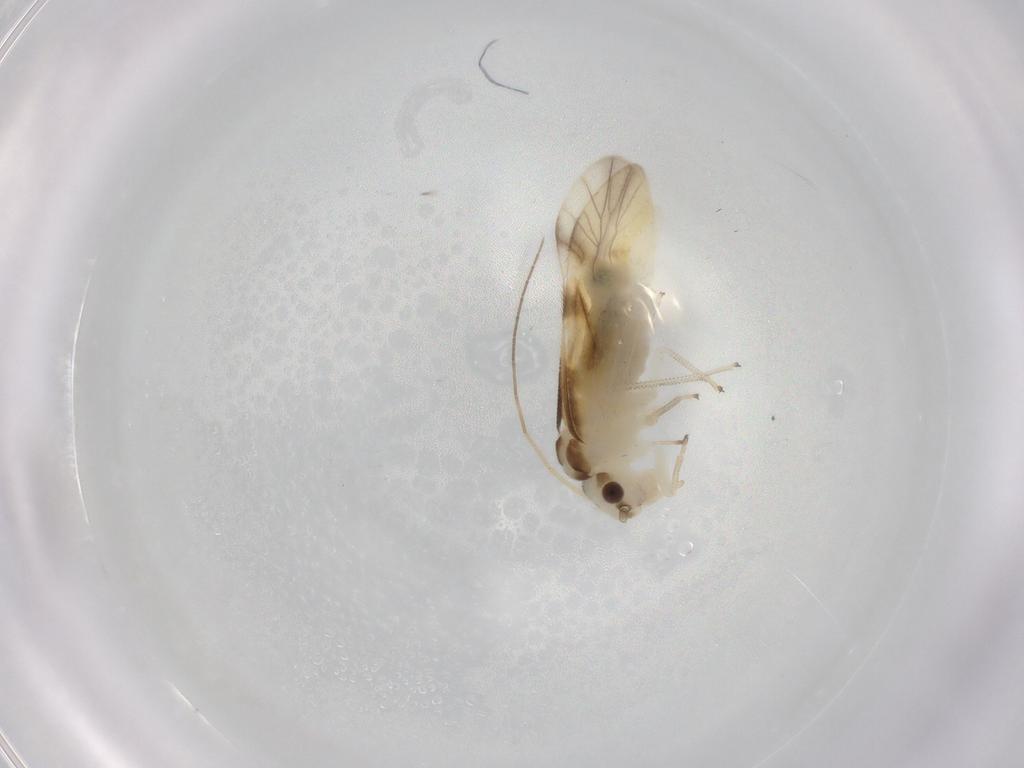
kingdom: Animalia
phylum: Arthropoda
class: Insecta
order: Psocodea
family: Caeciliusidae
